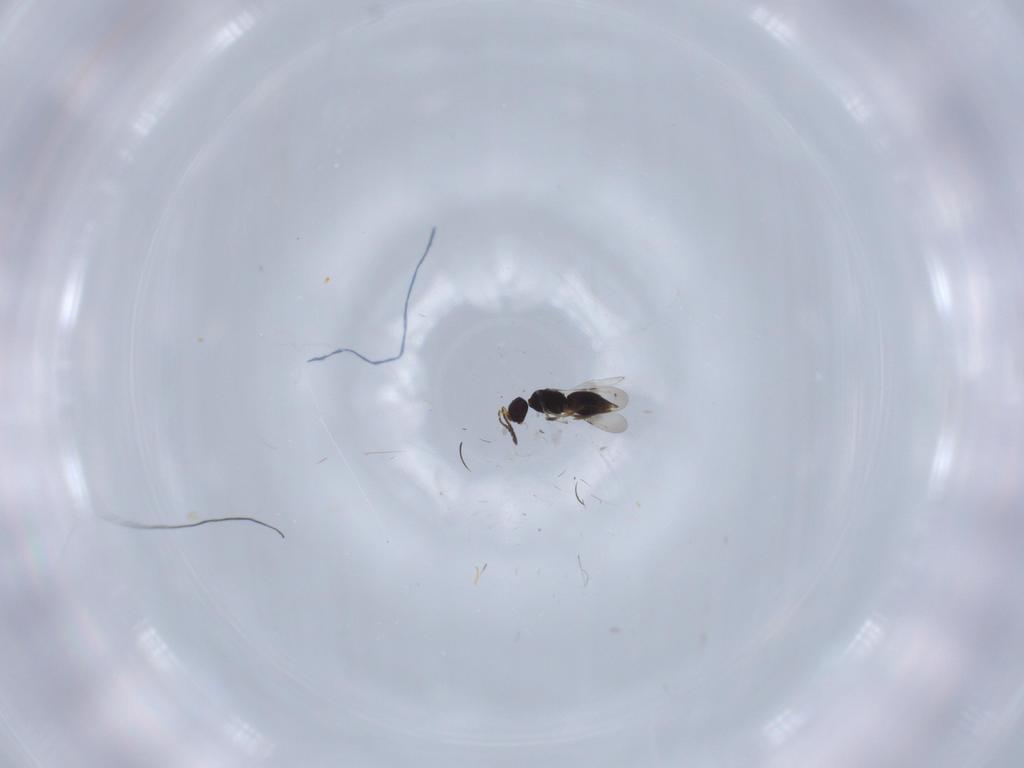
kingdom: Animalia
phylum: Arthropoda
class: Insecta
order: Hymenoptera
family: Ceraphronidae
